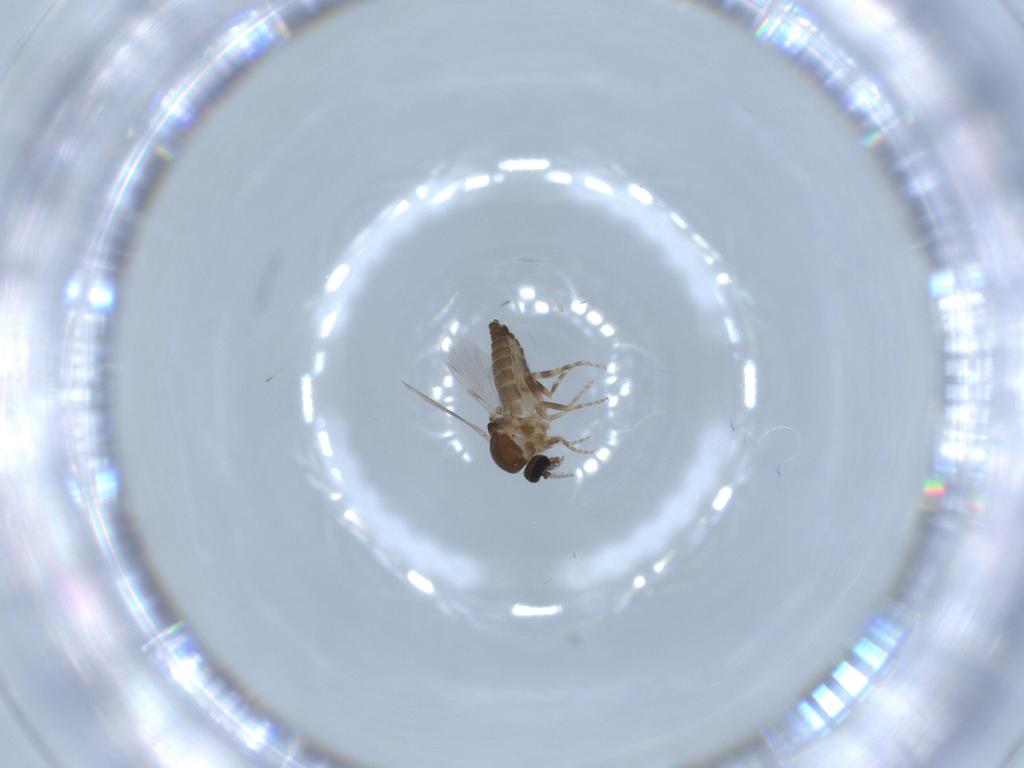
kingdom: Animalia
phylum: Arthropoda
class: Insecta
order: Diptera
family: Ceratopogonidae
